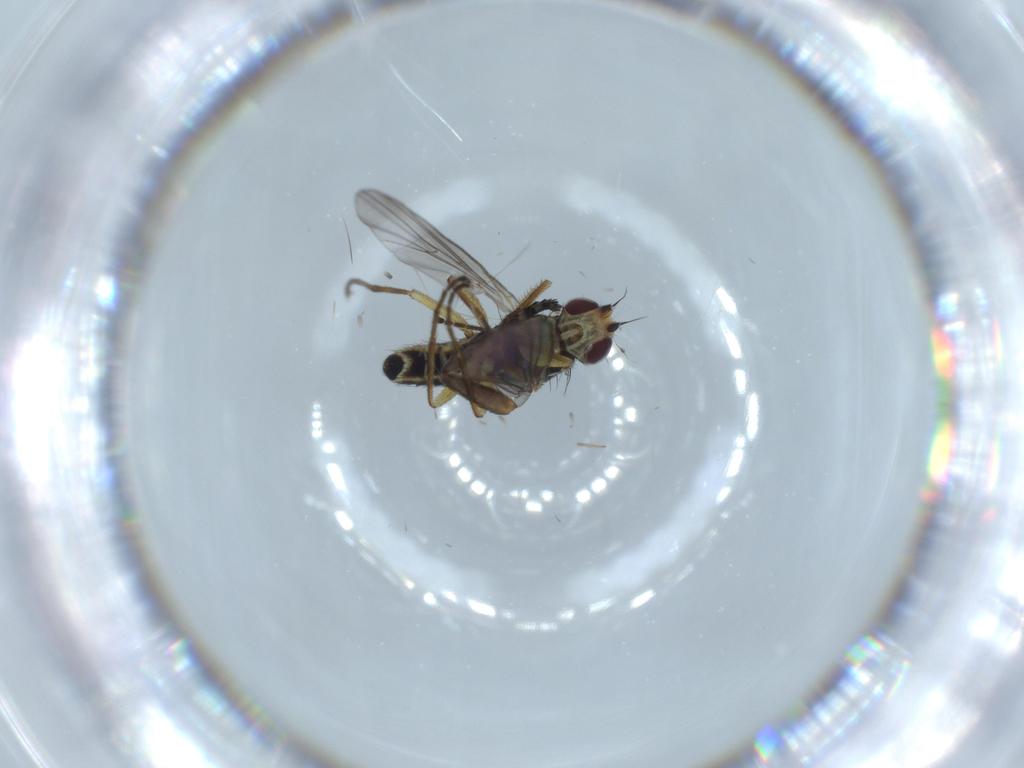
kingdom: Animalia
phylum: Arthropoda
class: Insecta
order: Diptera
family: Agromyzidae
